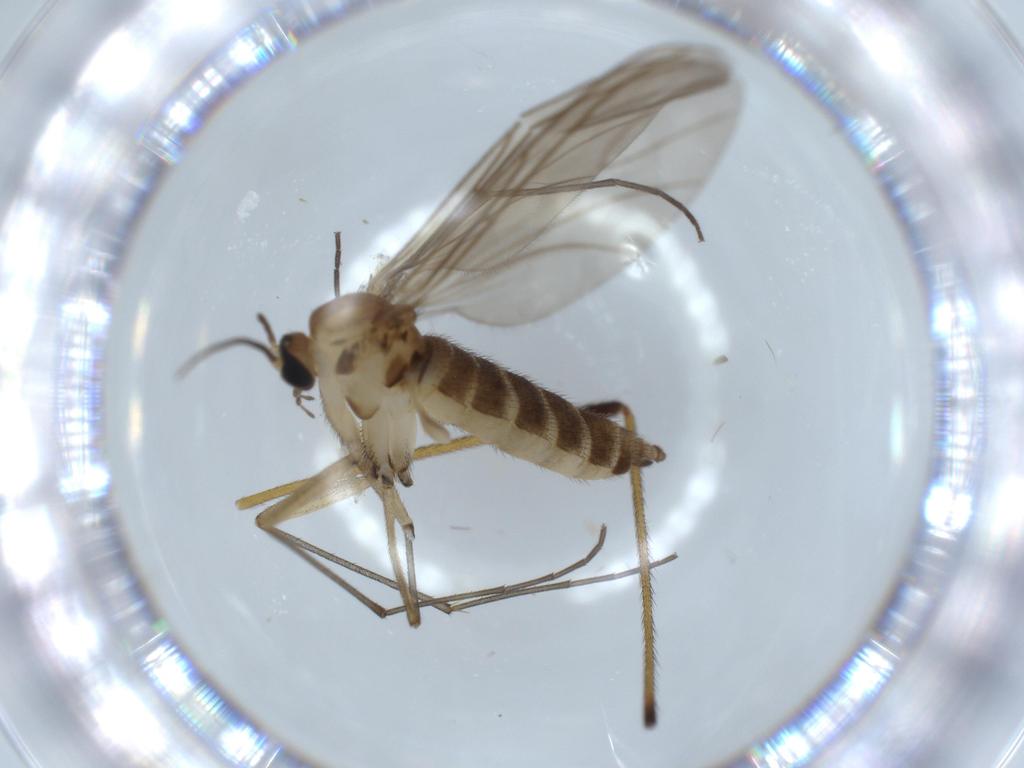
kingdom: Animalia
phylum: Arthropoda
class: Insecta
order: Diptera
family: Sciaridae
